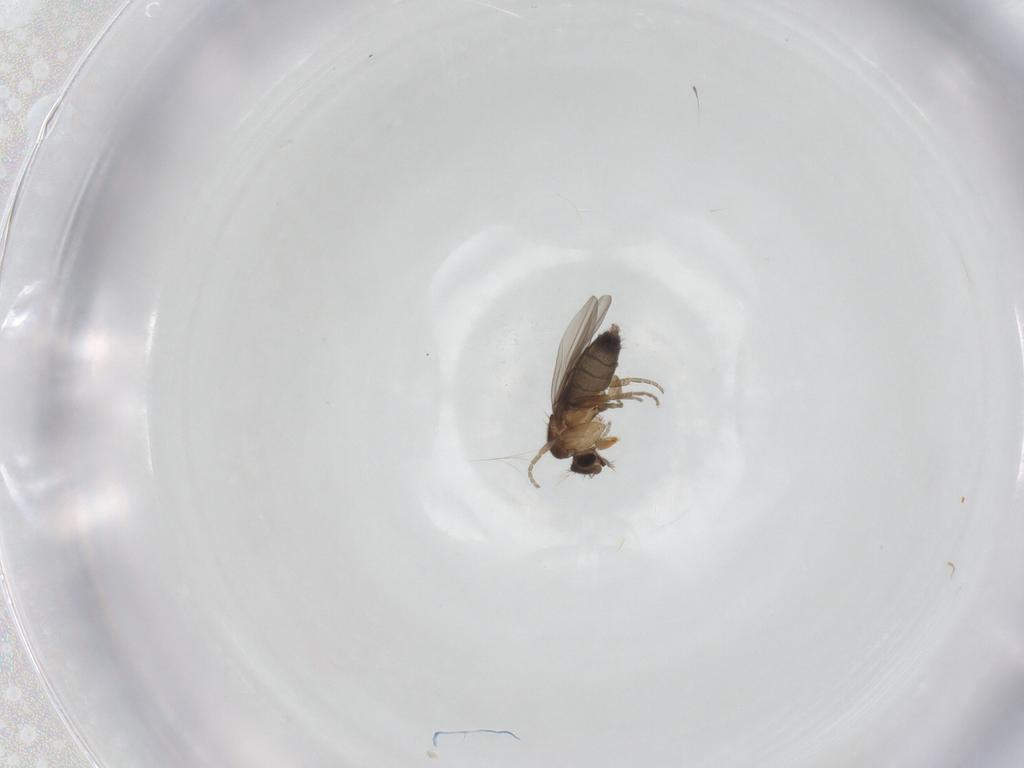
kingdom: Animalia
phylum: Arthropoda
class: Insecta
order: Diptera
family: Phoridae
